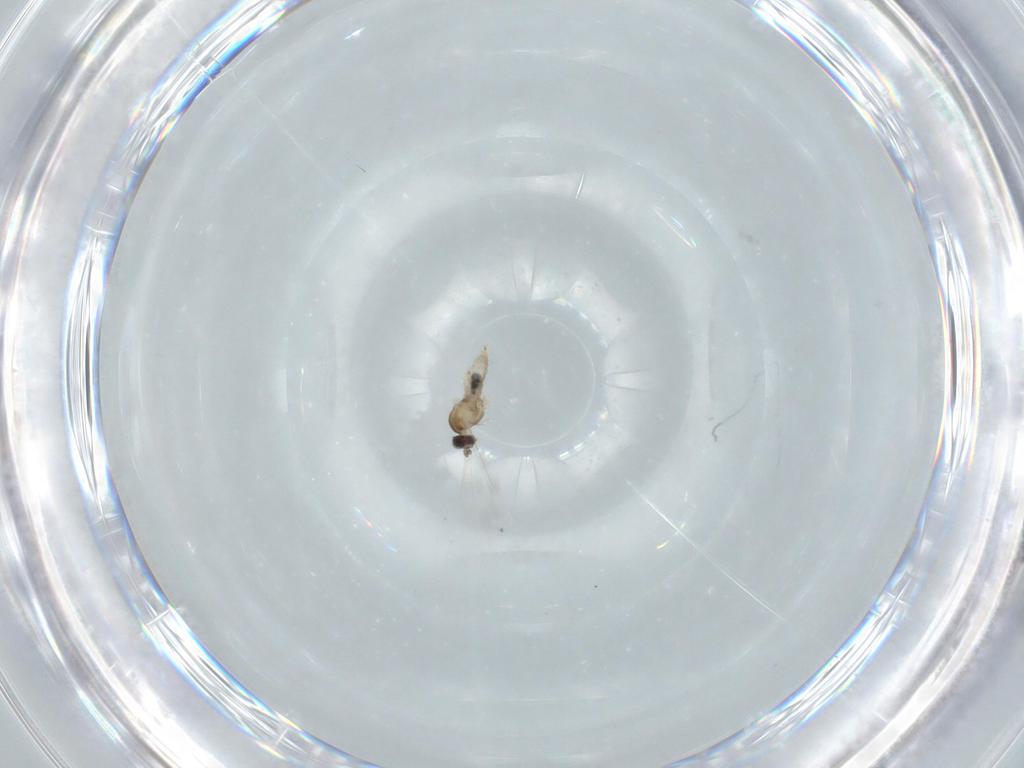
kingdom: Animalia
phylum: Arthropoda
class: Insecta
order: Diptera
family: Cecidomyiidae
